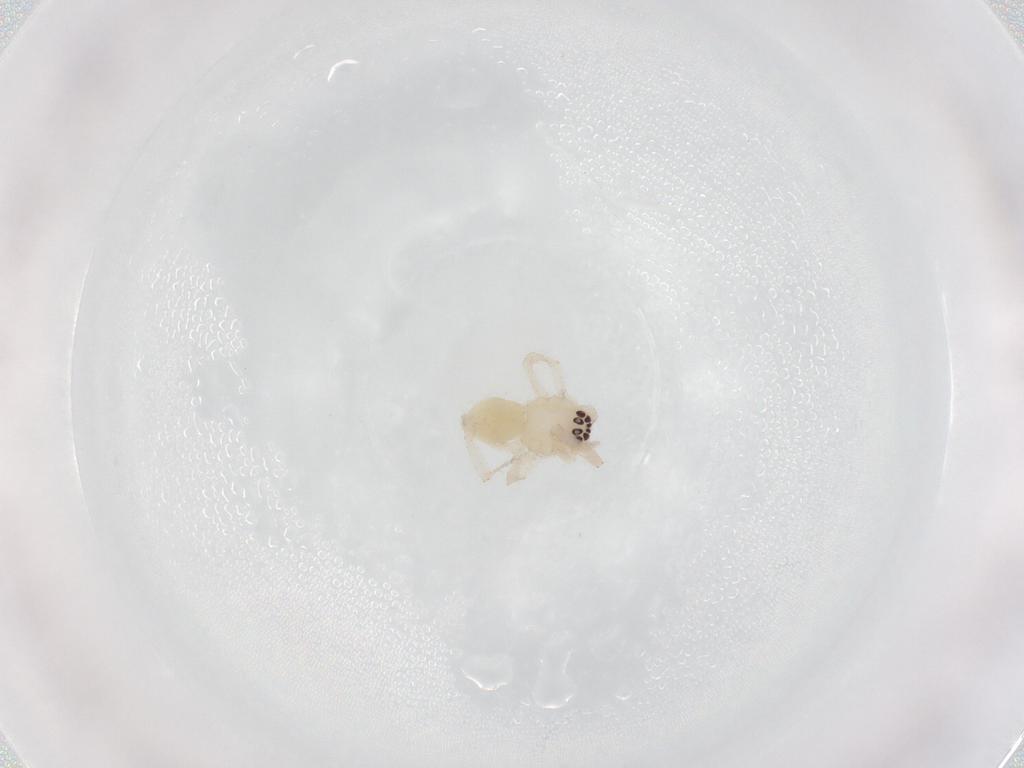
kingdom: Animalia
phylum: Arthropoda
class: Arachnida
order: Araneae
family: Anyphaenidae
